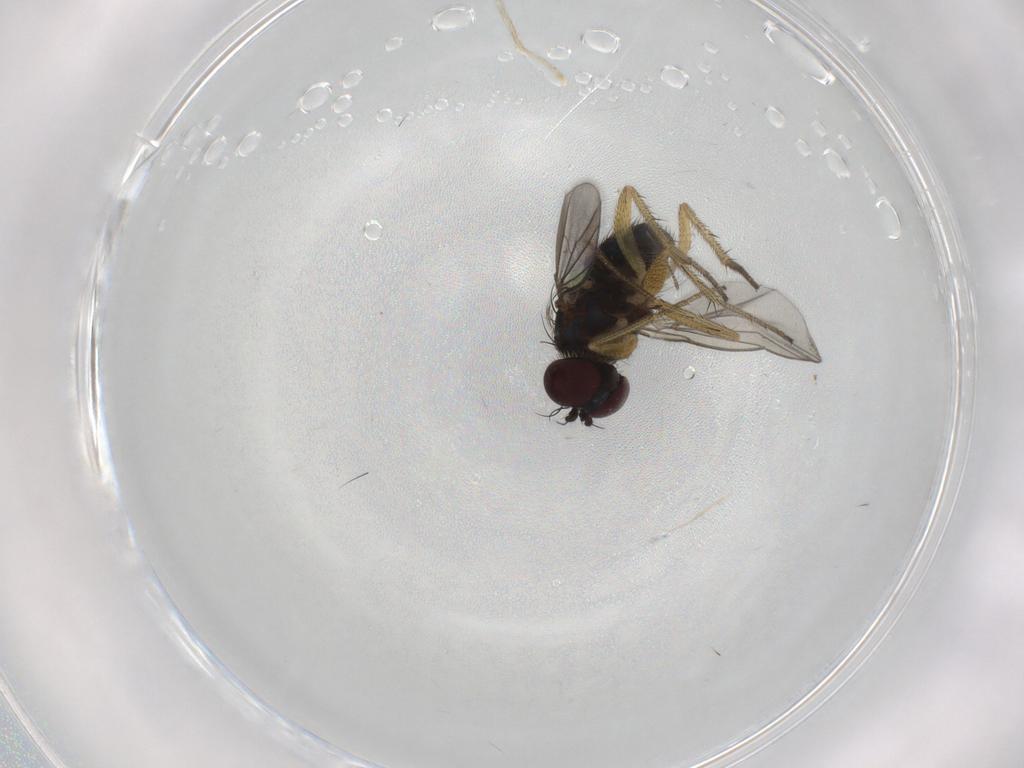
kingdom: Animalia
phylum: Arthropoda
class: Insecta
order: Diptera
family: Chironomidae
